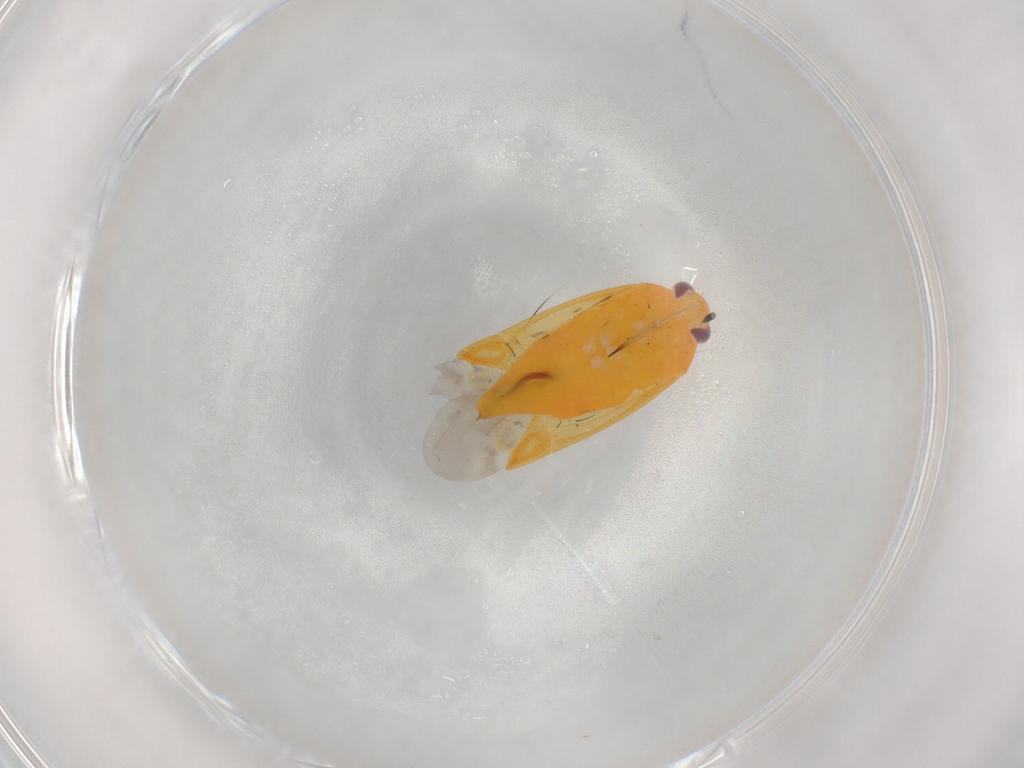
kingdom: Animalia
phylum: Arthropoda
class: Insecta
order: Hemiptera
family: Miridae
